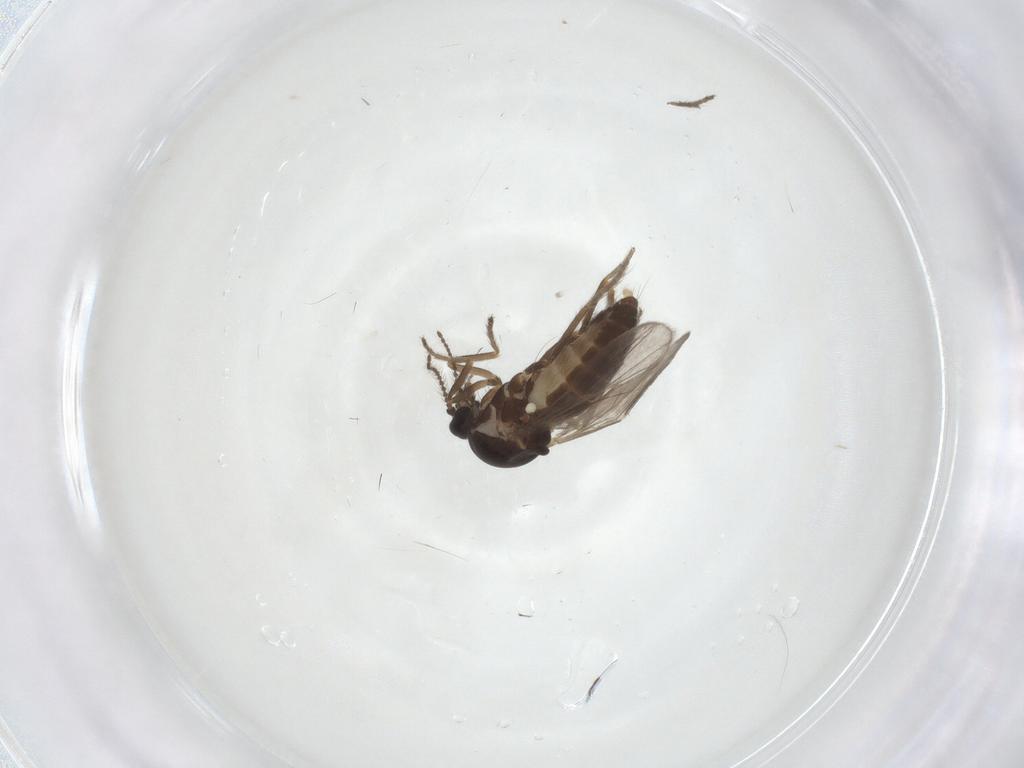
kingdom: Animalia
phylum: Arthropoda
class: Insecta
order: Diptera
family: Ceratopogonidae
